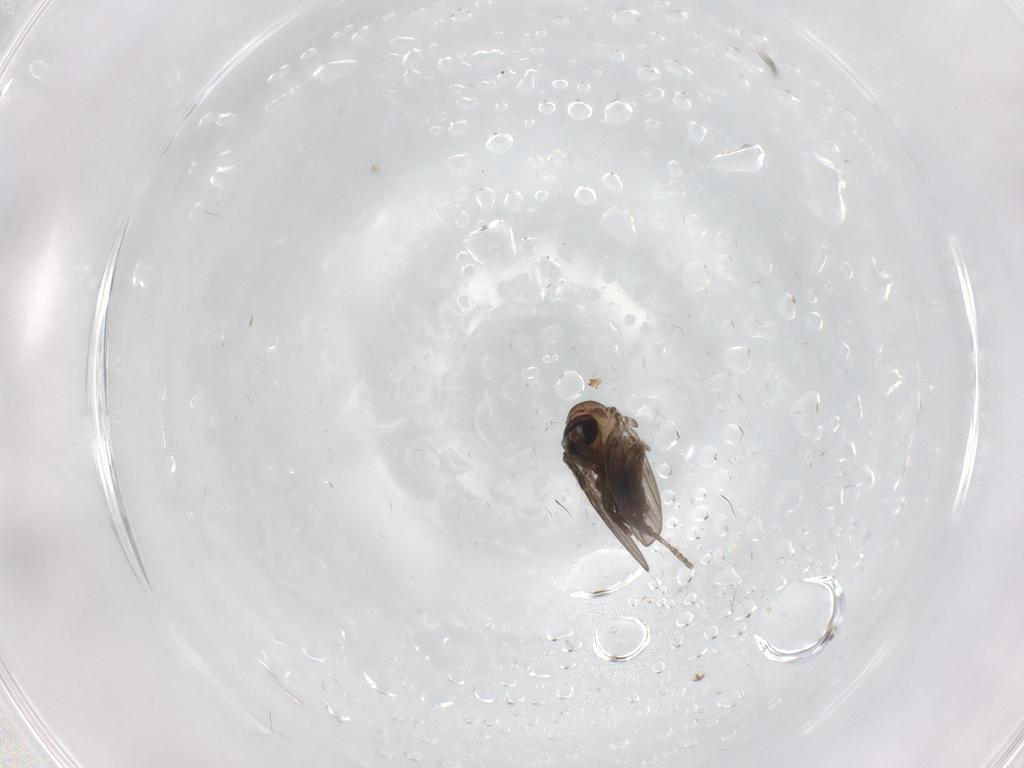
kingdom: Animalia
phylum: Arthropoda
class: Insecta
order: Diptera
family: Psychodidae
